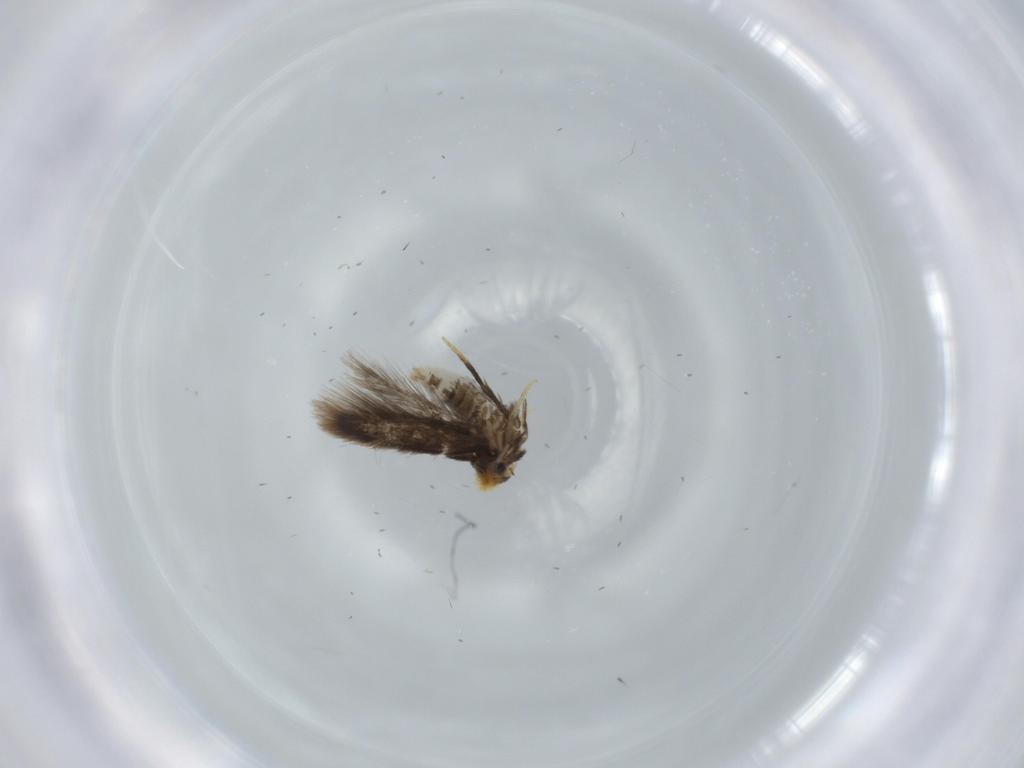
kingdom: Animalia
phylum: Arthropoda
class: Insecta
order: Lepidoptera
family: Nepticulidae
